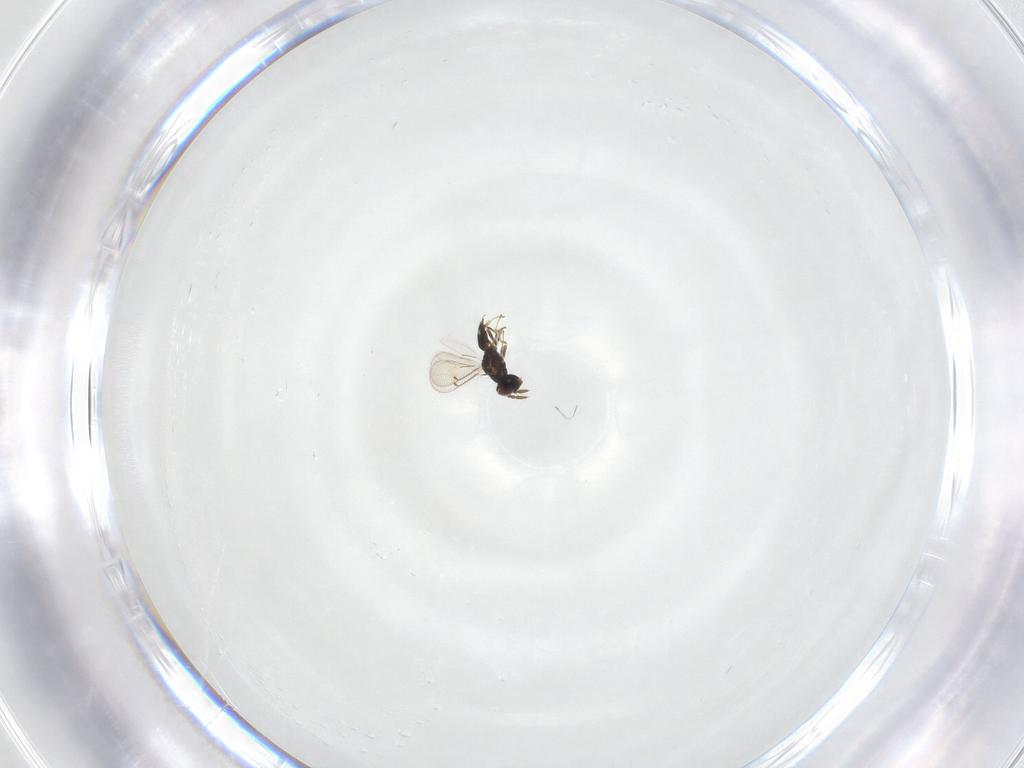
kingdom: Animalia
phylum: Arthropoda
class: Insecta
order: Hymenoptera
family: Eulophidae
